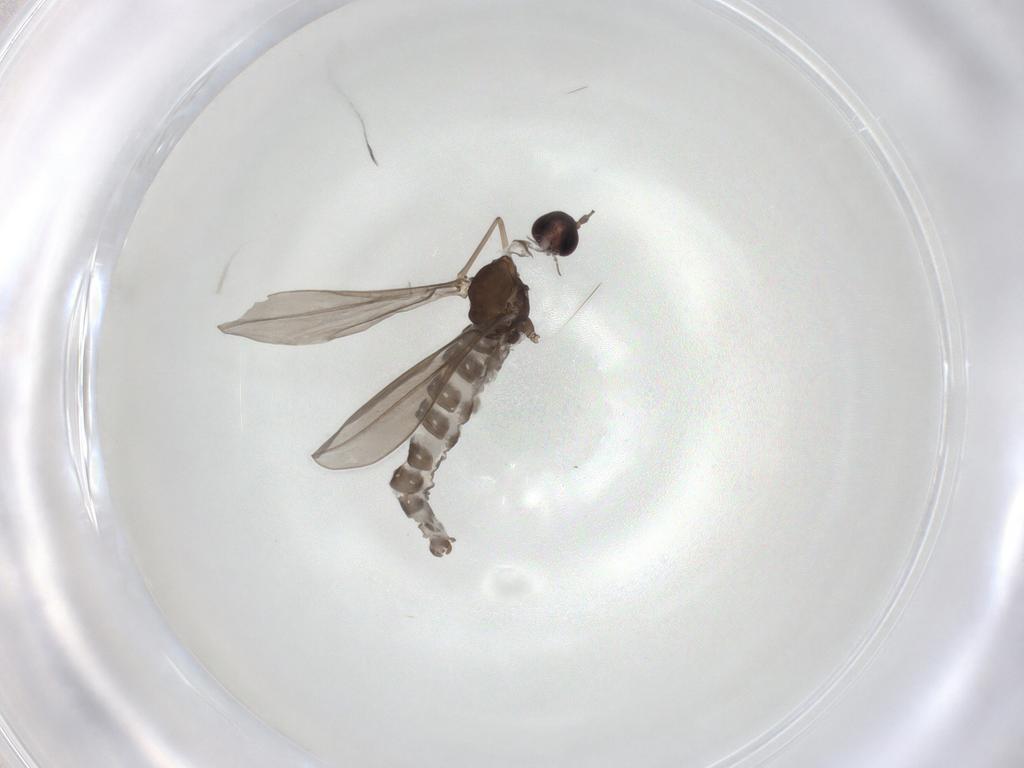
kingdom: Animalia
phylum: Arthropoda
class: Insecta
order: Diptera
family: Cecidomyiidae
